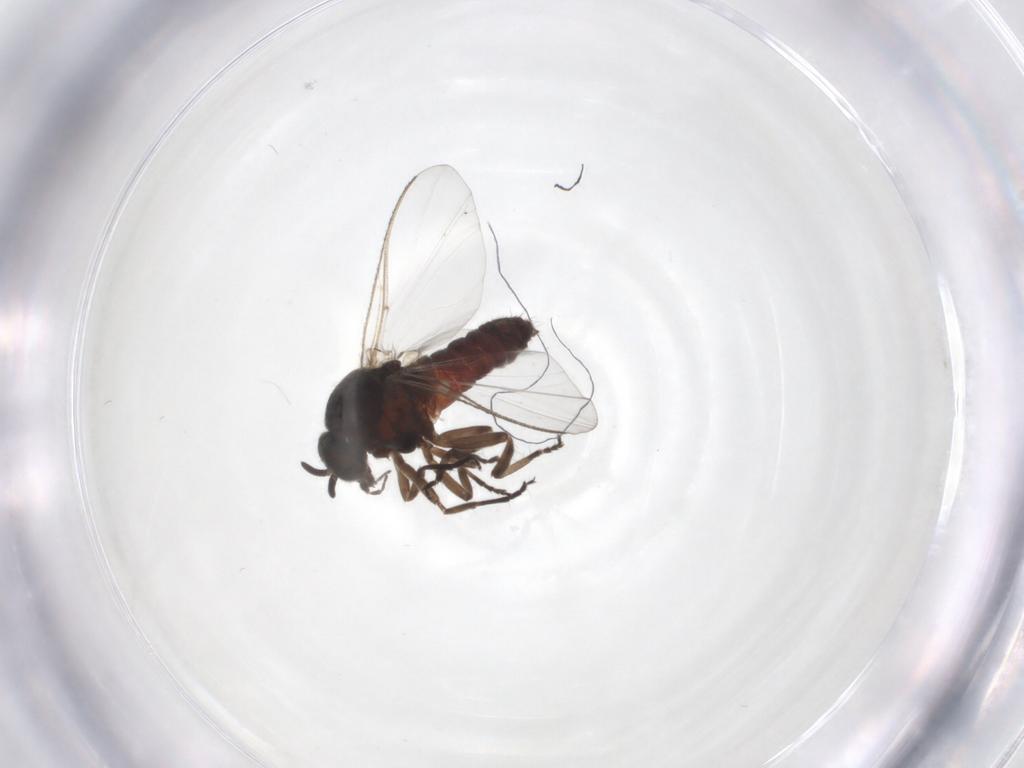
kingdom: Animalia
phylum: Arthropoda
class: Insecta
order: Diptera
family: Simuliidae
